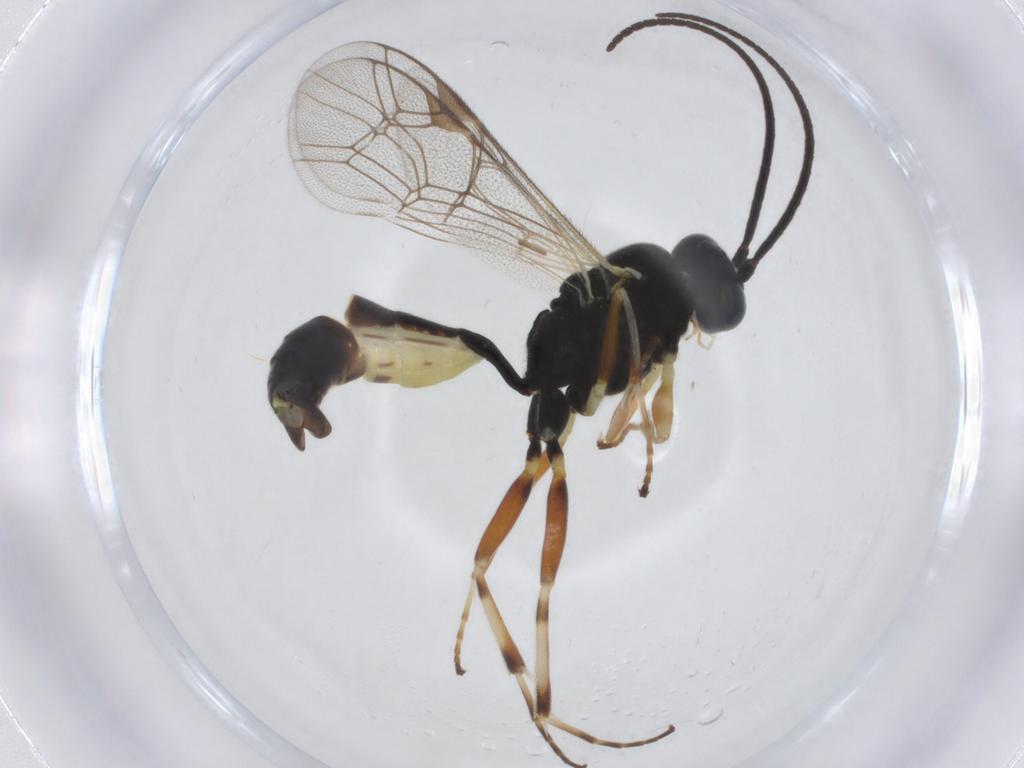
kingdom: Animalia
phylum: Arthropoda
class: Insecta
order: Hymenoptera
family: Ichneumonidae
